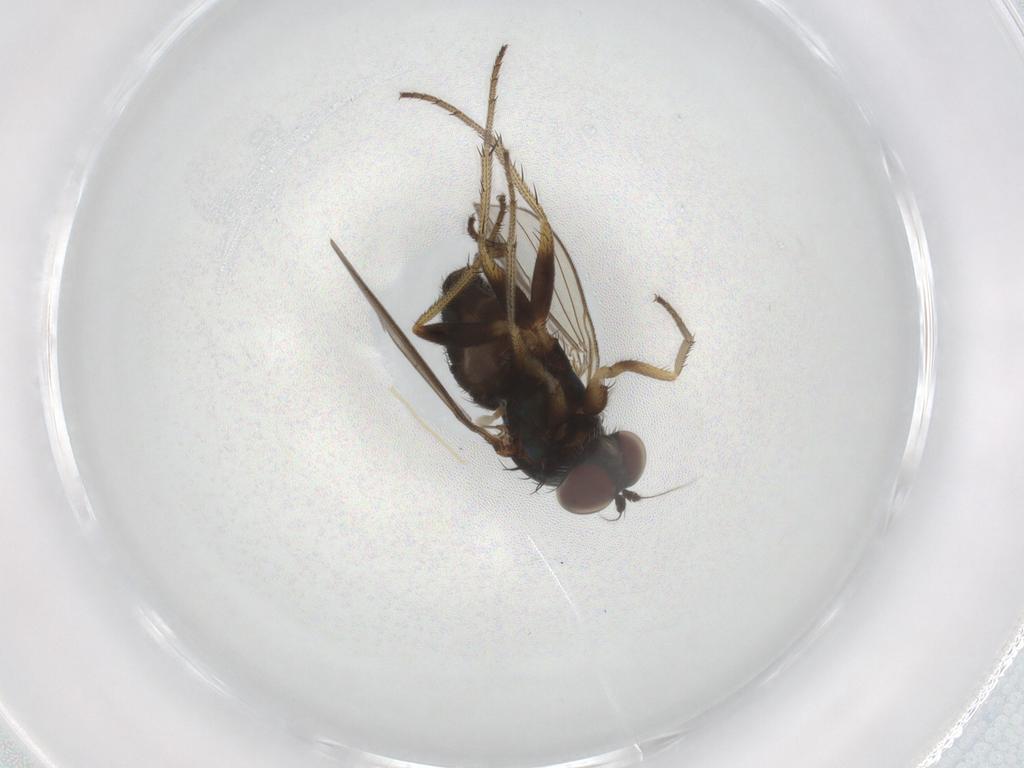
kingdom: Animalia
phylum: Arthropoda
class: Insecta
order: Diptera
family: Dolichopodidae
